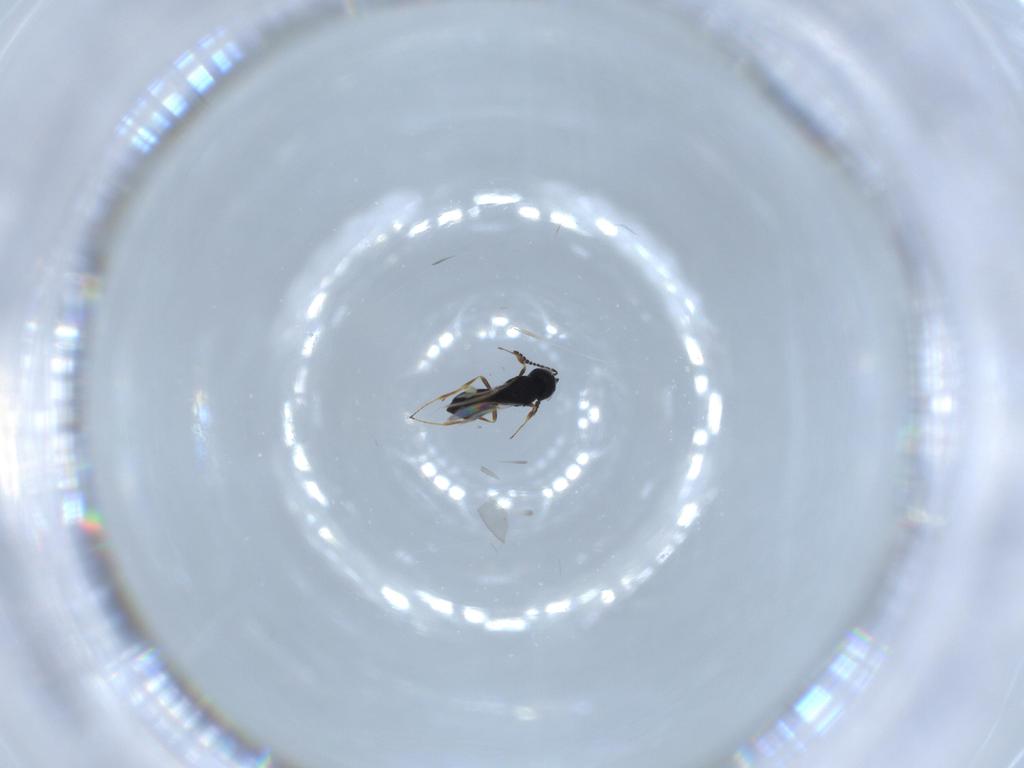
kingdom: Animalia
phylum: Arthropoda
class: Insecta
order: Hymenoptera
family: Scelionidae
